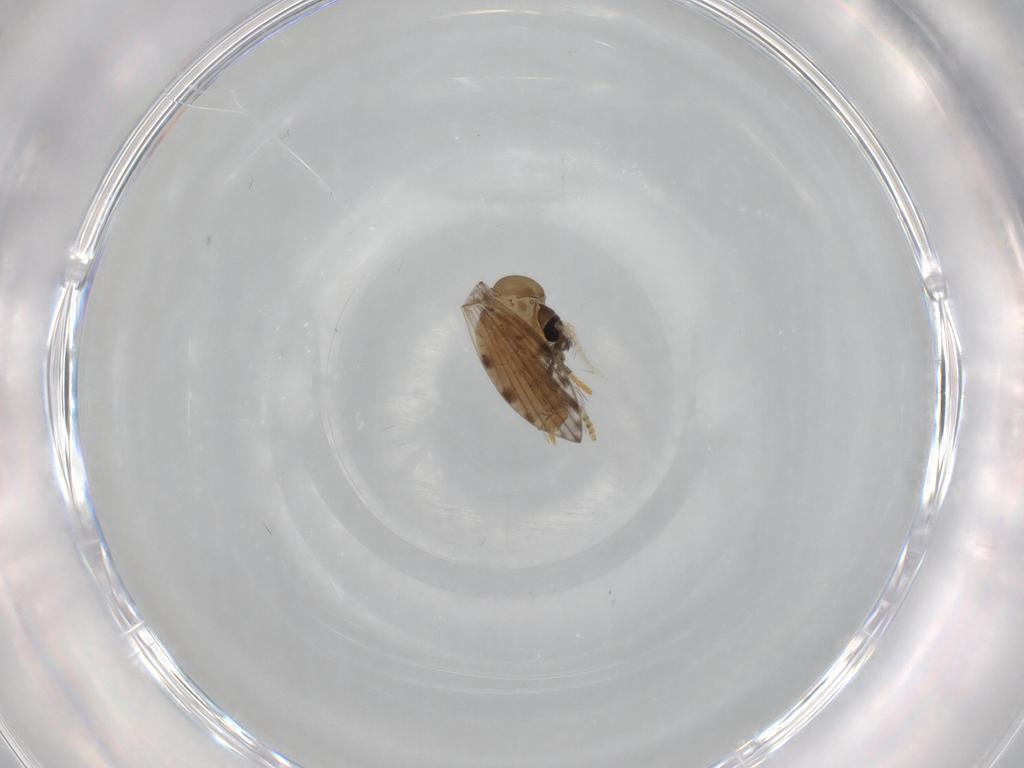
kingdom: Animalia
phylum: Arthropoda
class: Insecta
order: Diptera
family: Psychodidae
